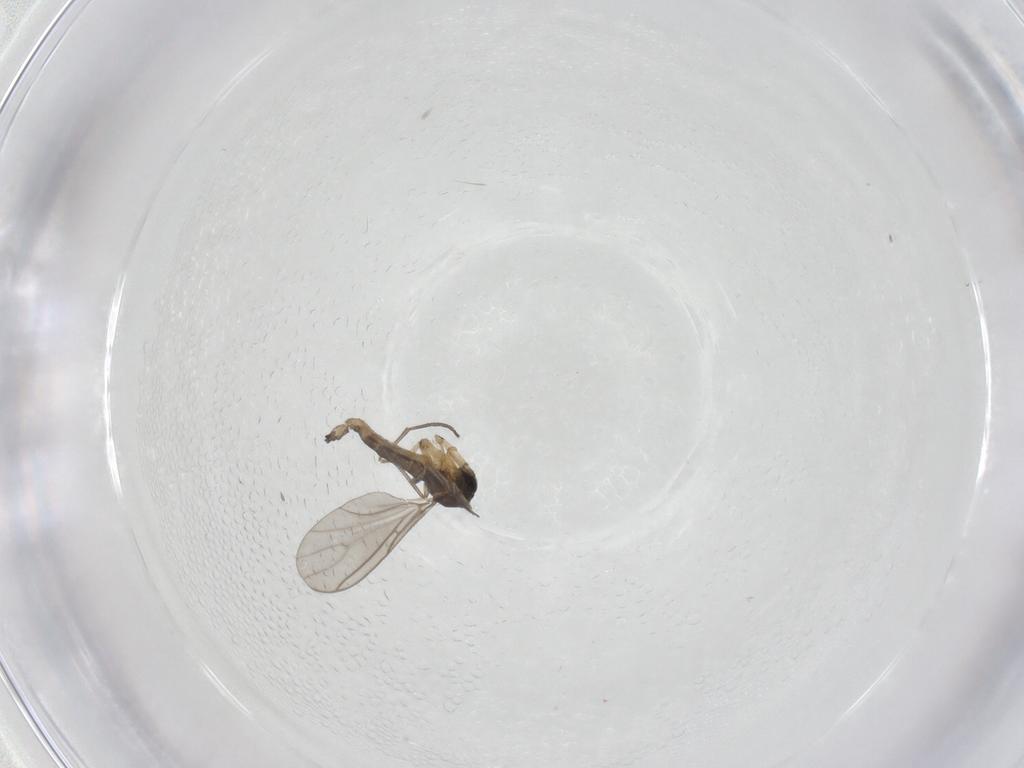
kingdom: Animalia
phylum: Arthropoda
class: Insecta
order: Diptera
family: Sciaridae
